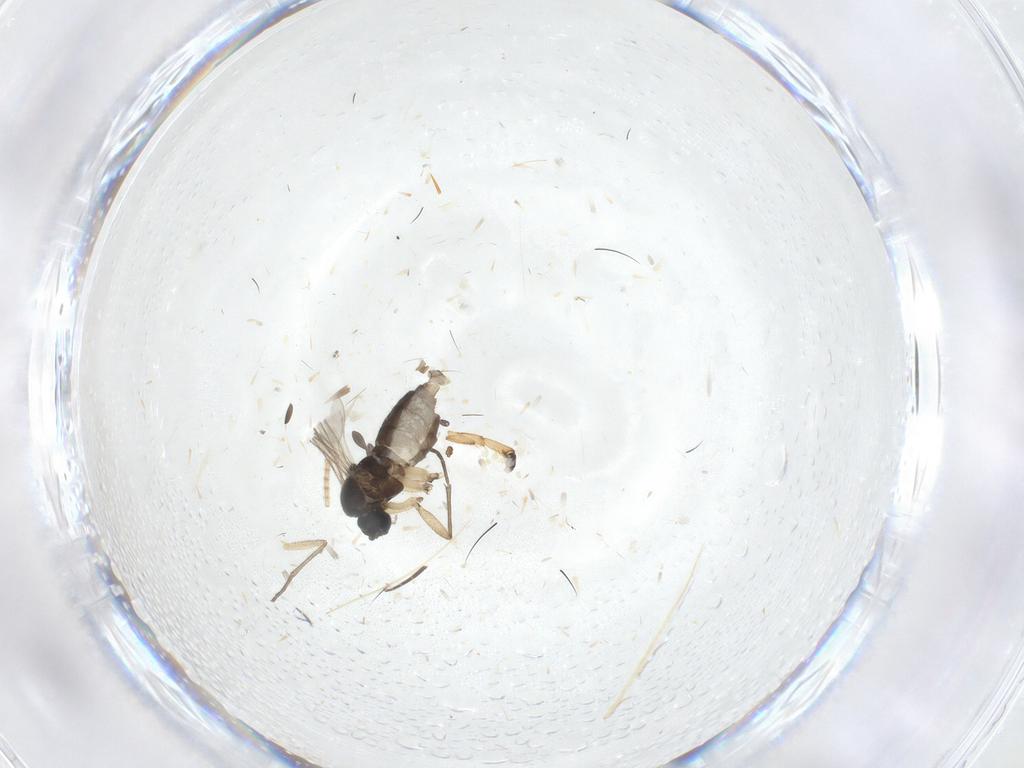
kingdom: Animalia
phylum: Arthropoda
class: Insecta
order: Diptera
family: Sciaridae
